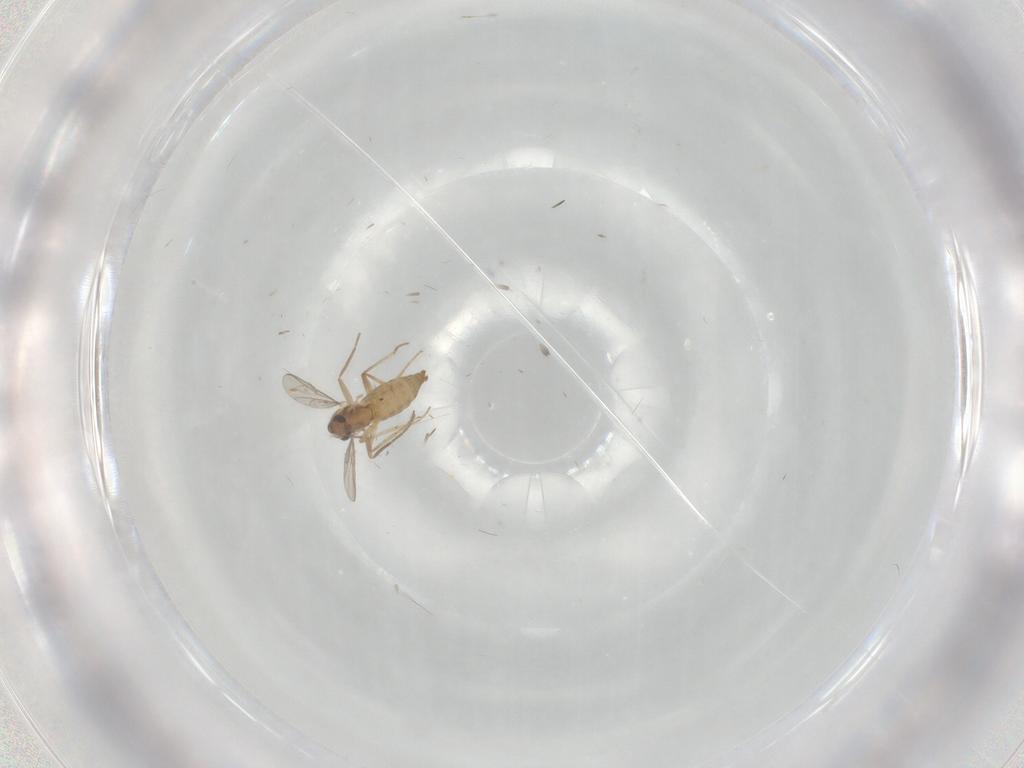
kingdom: Animalia
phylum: Arthropoda
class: Insecta
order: Diptera
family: Chironomidae
